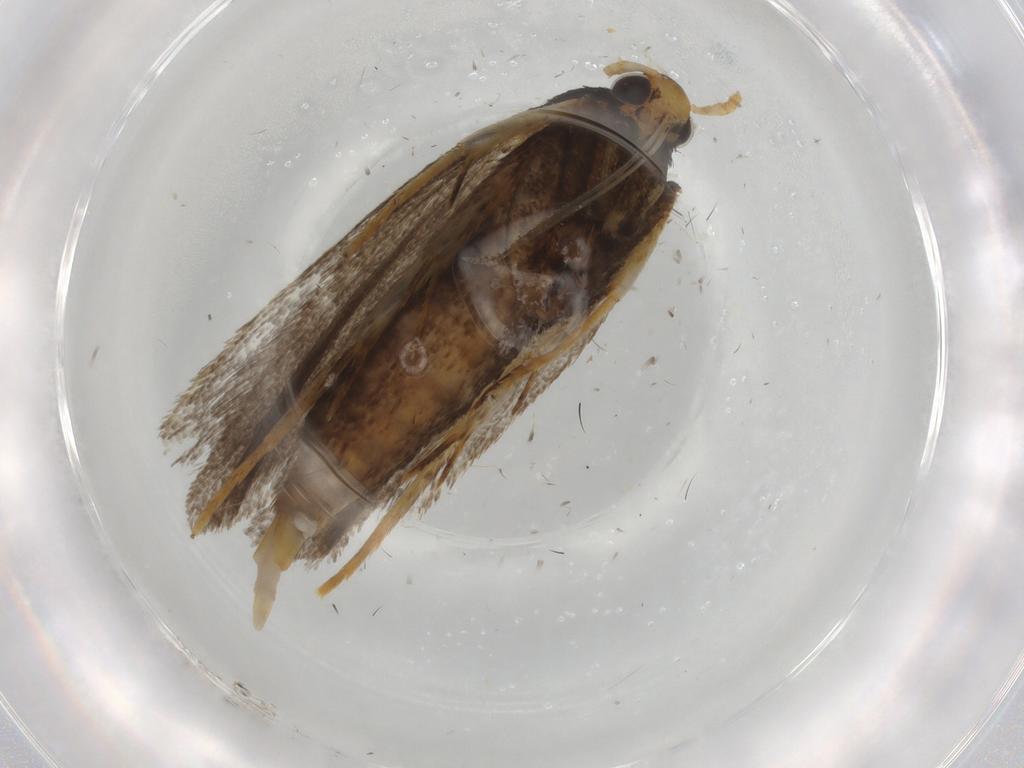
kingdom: Animalia
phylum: Arthropoda
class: Insecta
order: Lepidoptera
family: Lecithoceridae
